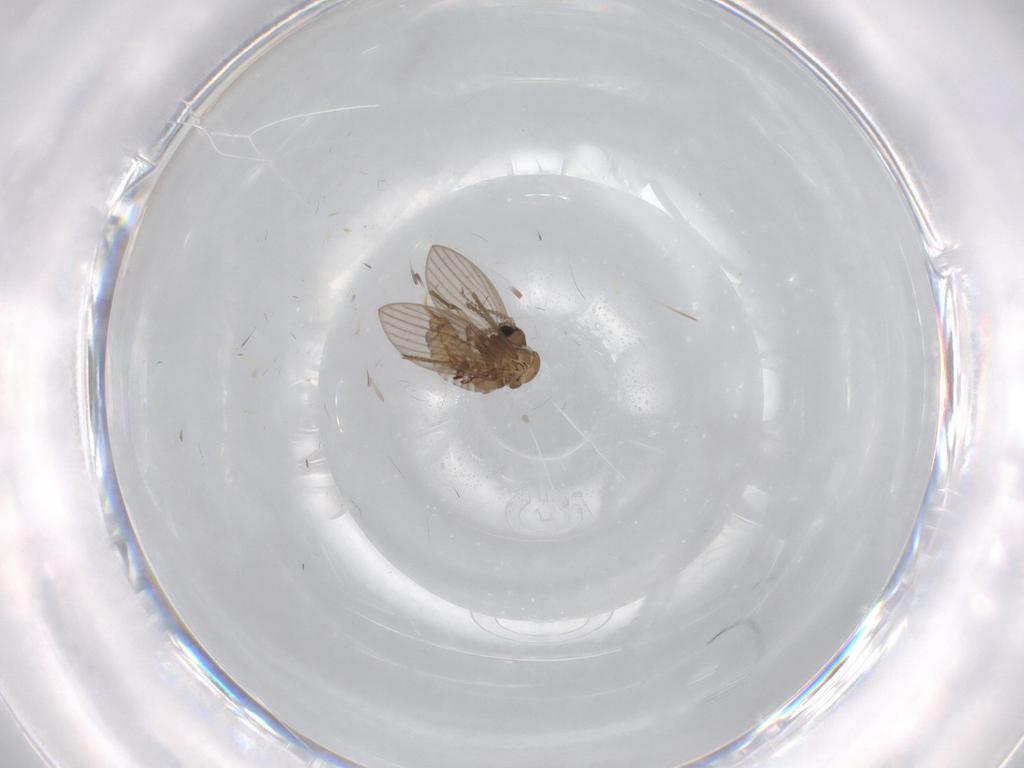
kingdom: Animalia
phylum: Arthropoda
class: Insecta
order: Diptera
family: Psychodidae
